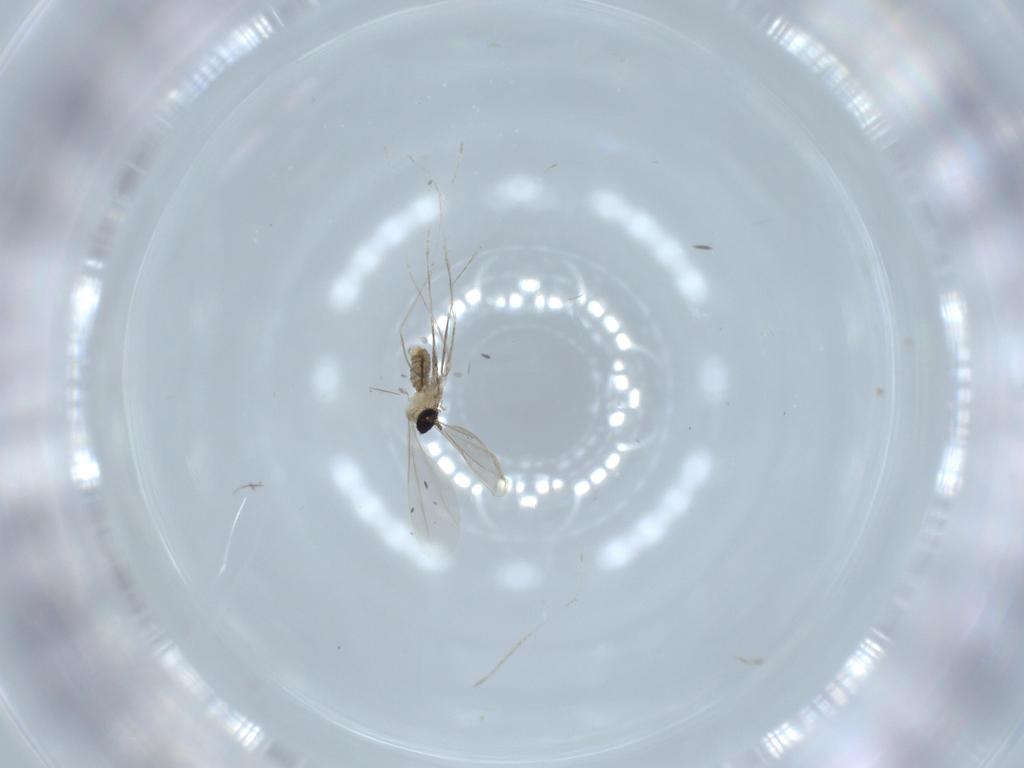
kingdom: Animalia
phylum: Arthropoda
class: Insecta
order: Diptera
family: Cecidomyiidae
